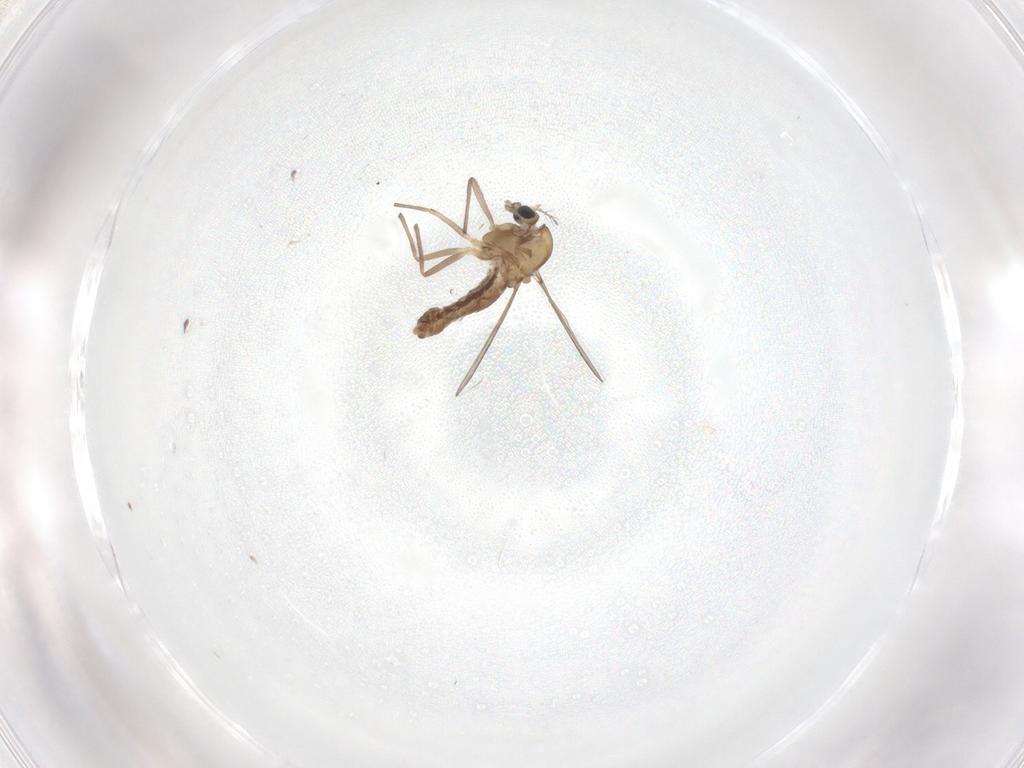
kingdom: Animalia
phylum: Arthropoda
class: Insecta
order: Diptera
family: Chironomidae
